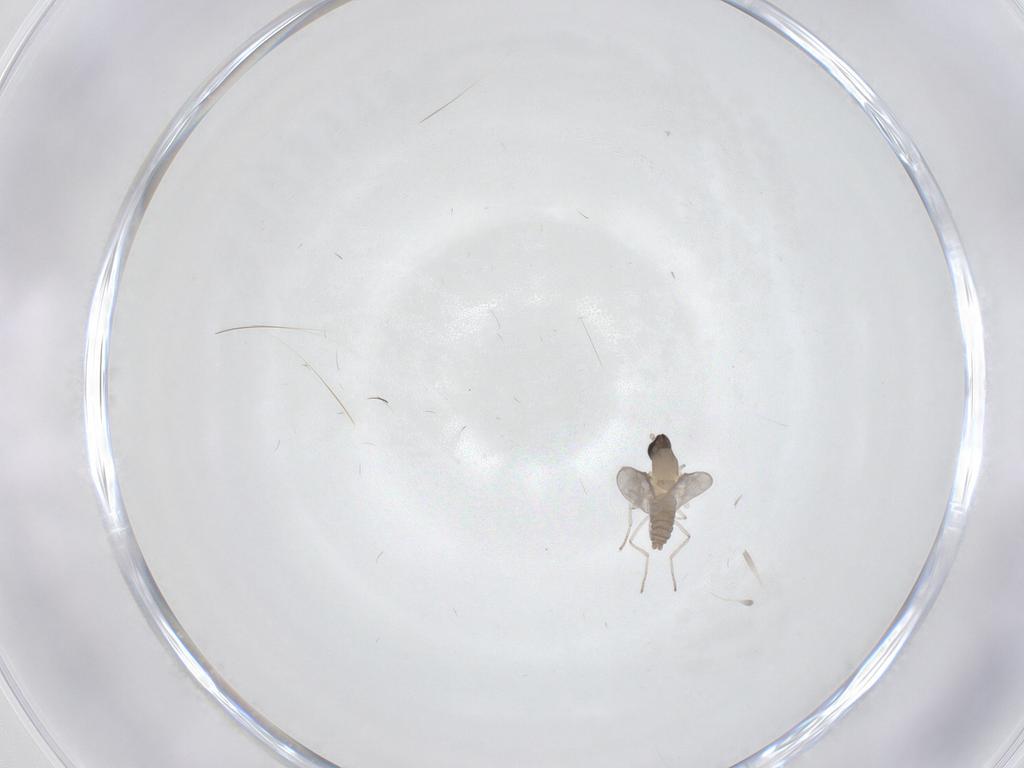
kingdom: Animalia
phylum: Arthropoda
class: Insecta
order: Diptera
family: Cecidomyiidae
